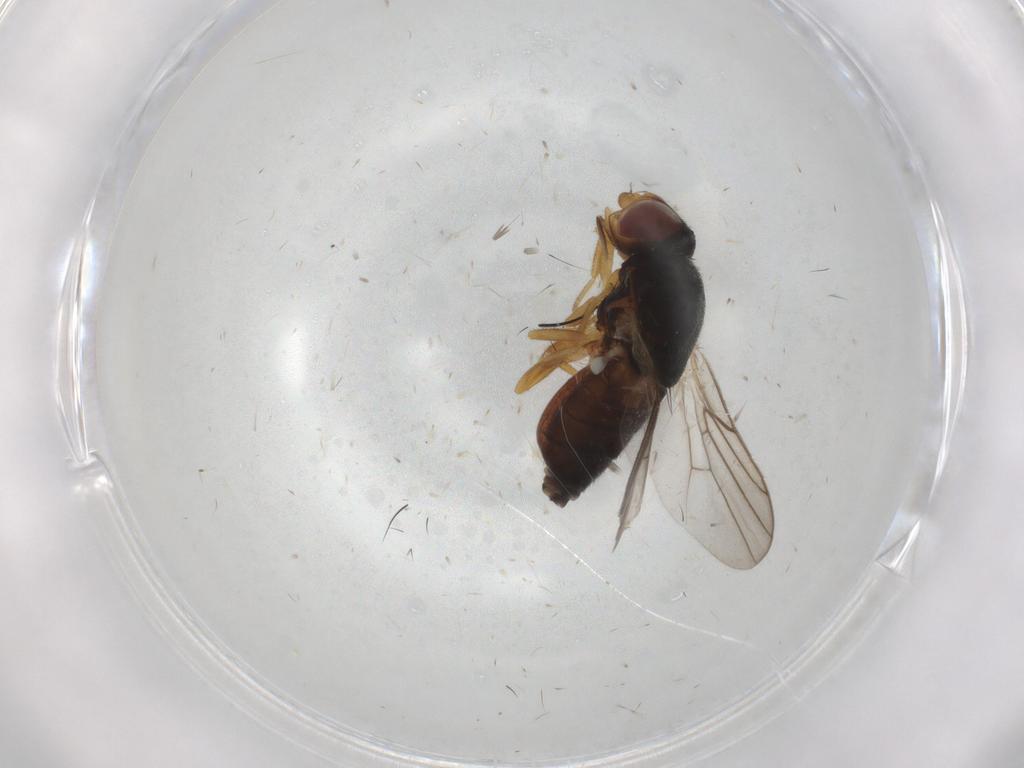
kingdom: Animalia
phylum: Arthropoda
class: Insecta
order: Diptera
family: Chloropidae
